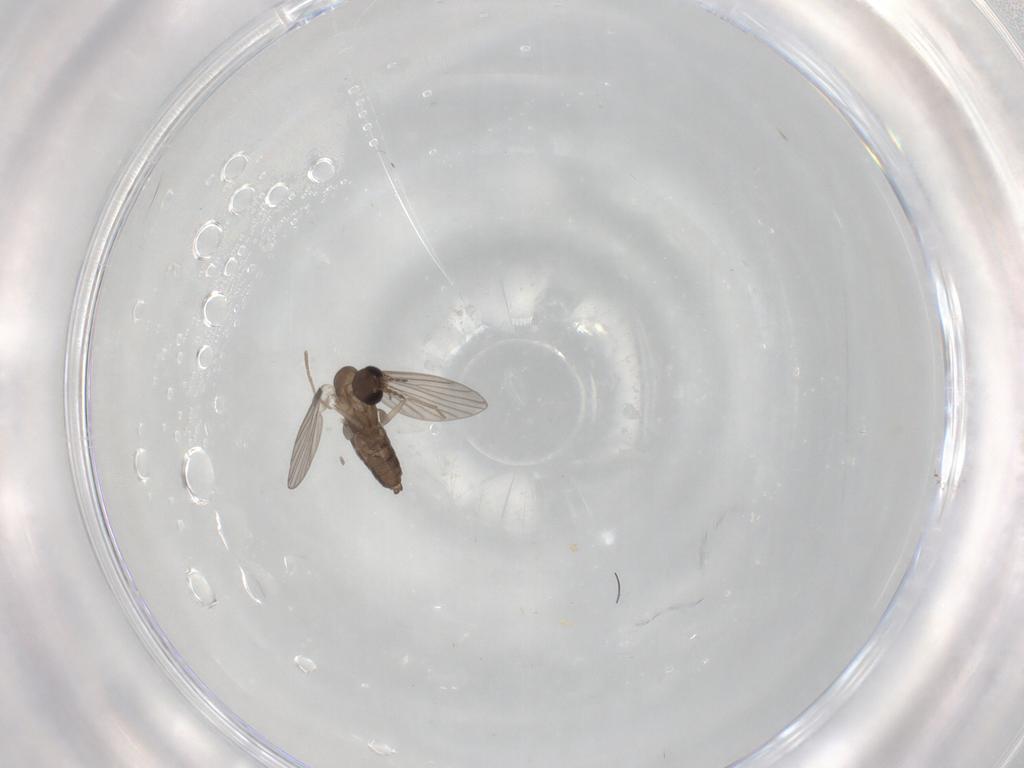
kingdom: Animalia
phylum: Arthropoda
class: Insecta
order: Diptera
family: Phoridae
